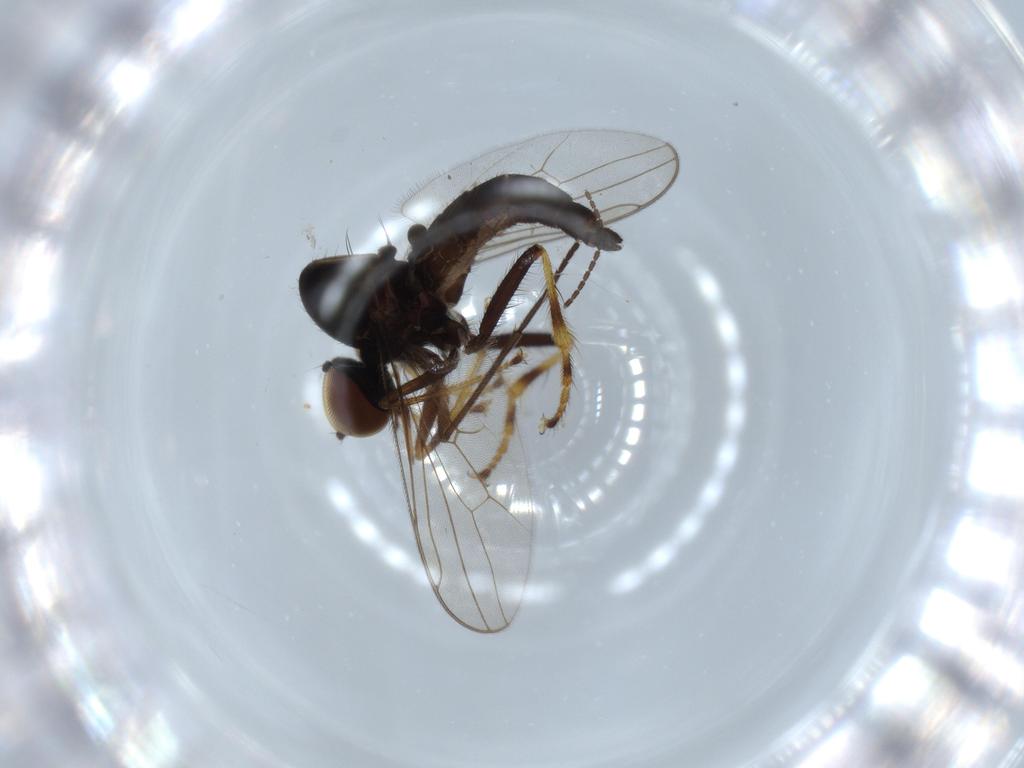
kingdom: Animalia
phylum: Arthropoda
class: Insecta
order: Diptera
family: Hybotidae
